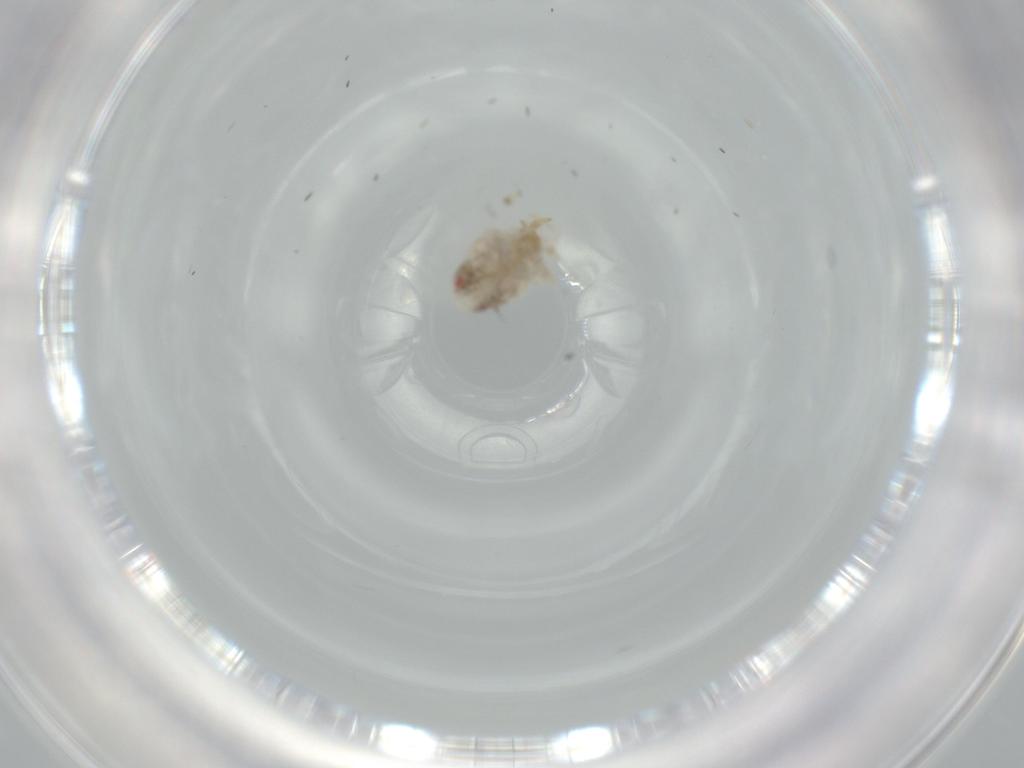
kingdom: Animalia
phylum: Arthropoda
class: Insecta
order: Hemiptera
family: Acanaloniidae
